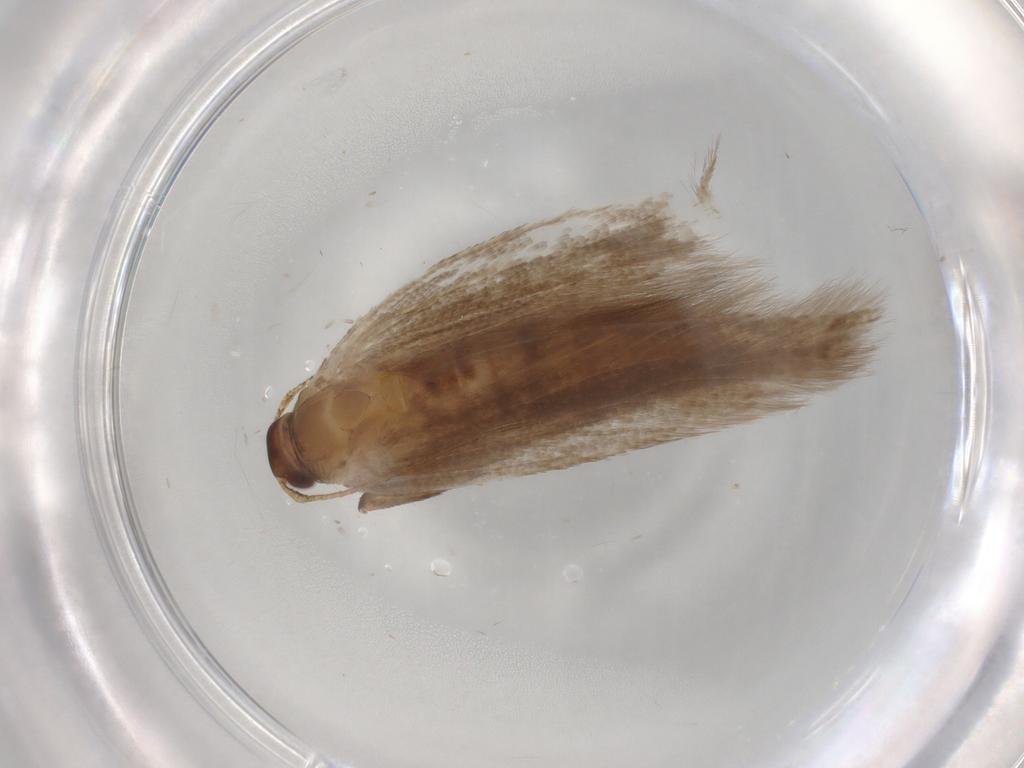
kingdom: Animalia
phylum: Arthropoda
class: Insecta
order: Lepidoptera
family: Gelechiidae
